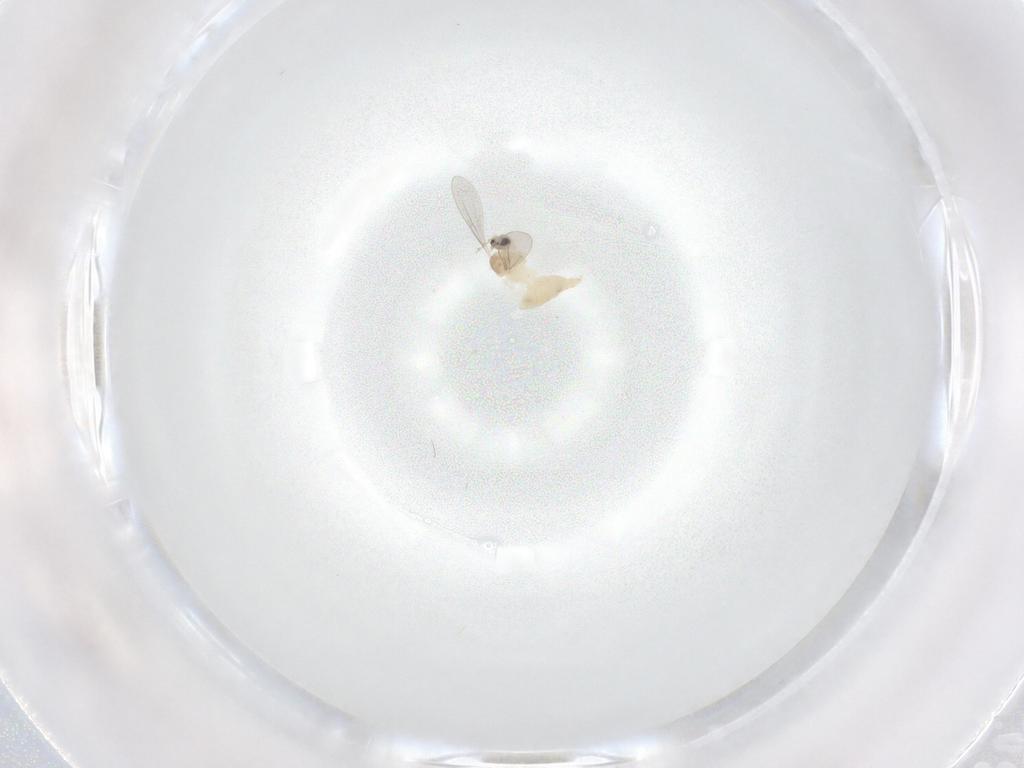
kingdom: Animalia
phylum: Arthropoda
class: Insecta
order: Diptera
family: Cecidomyiidae
